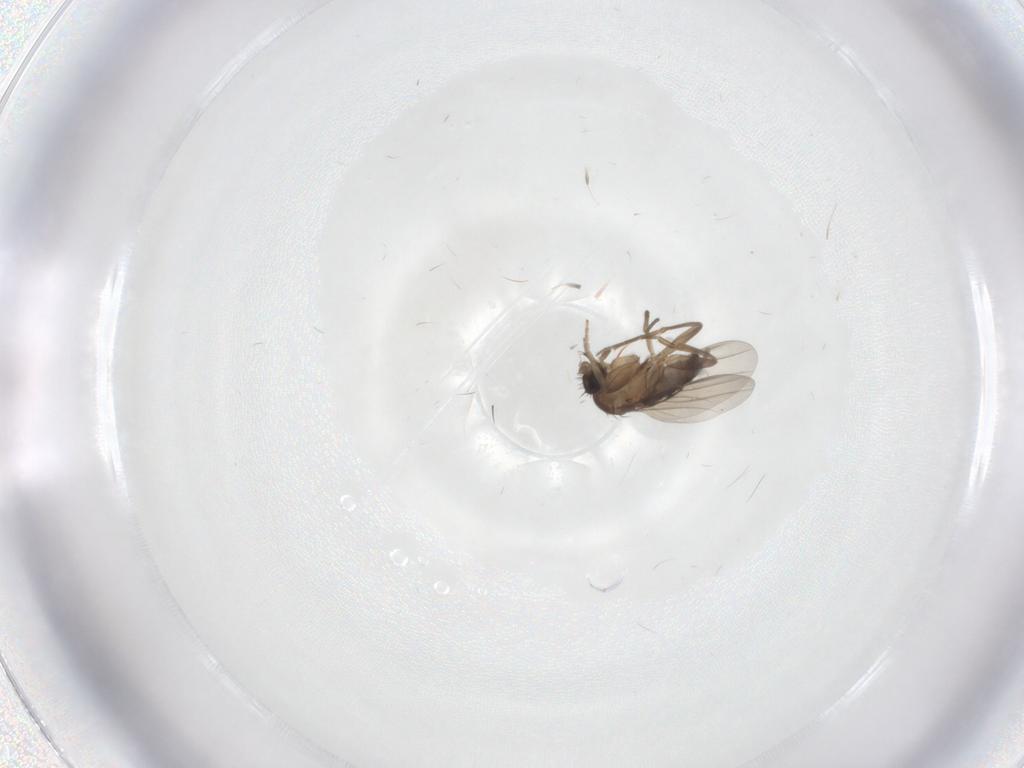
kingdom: Animalia
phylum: Arthropoda
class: Insecta
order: Diptera
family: Phoridae
